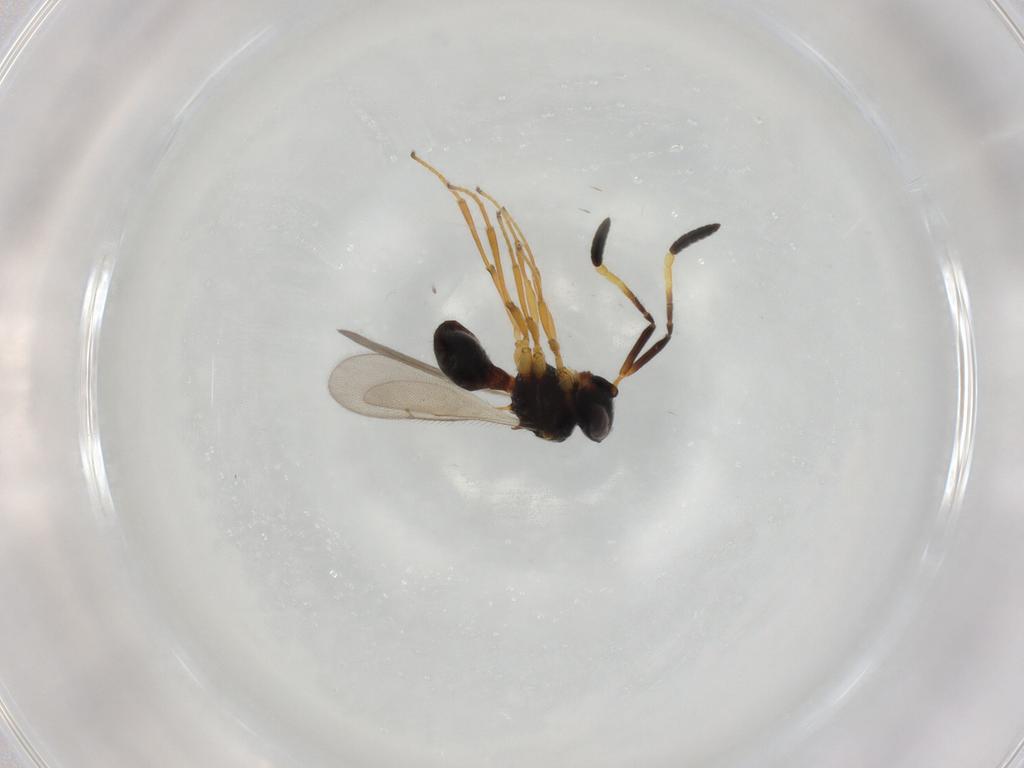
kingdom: Animalia
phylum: Arthropoda
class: Insecta
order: Hymenoptera
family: Scelionidae
